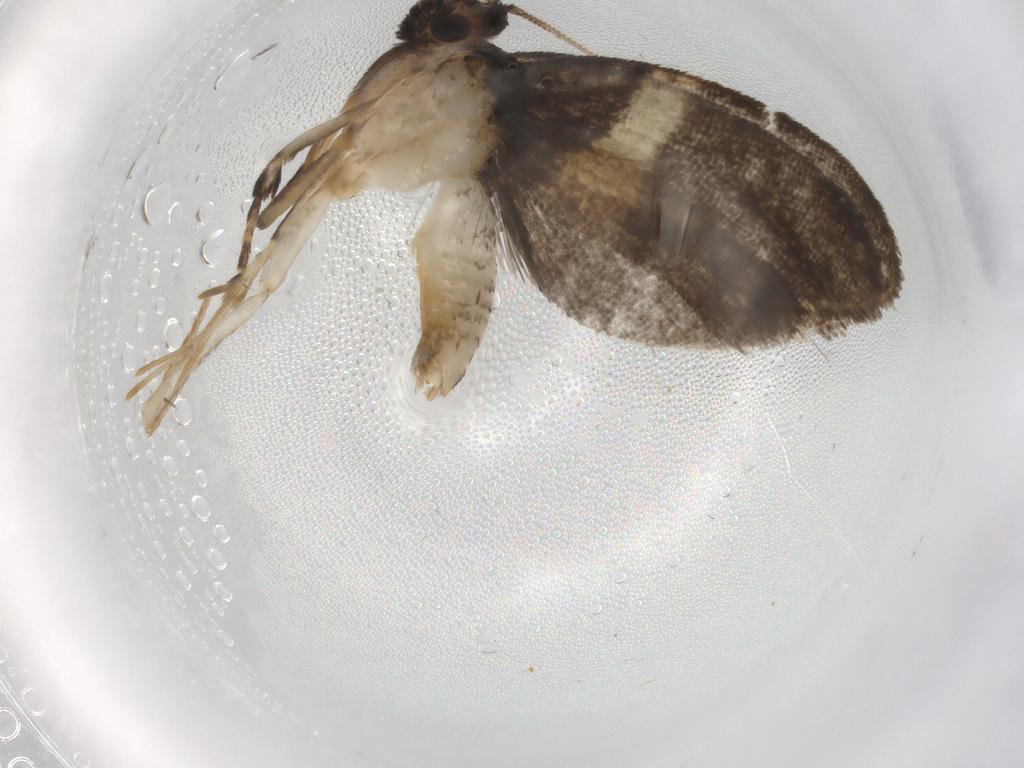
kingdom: Animalia
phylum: Arthropoda
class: Insecta
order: Lepidoptera
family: Psychidae
